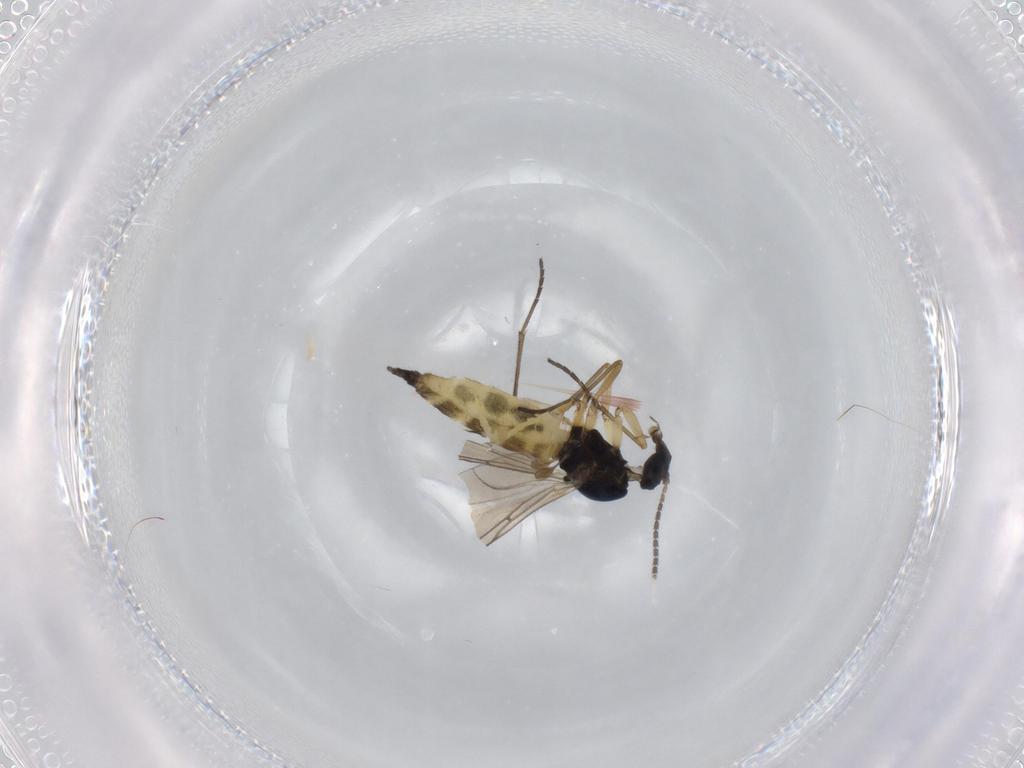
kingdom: Animalia
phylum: Arthropoda
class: Insecta
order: Diptera
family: Sciaridae
